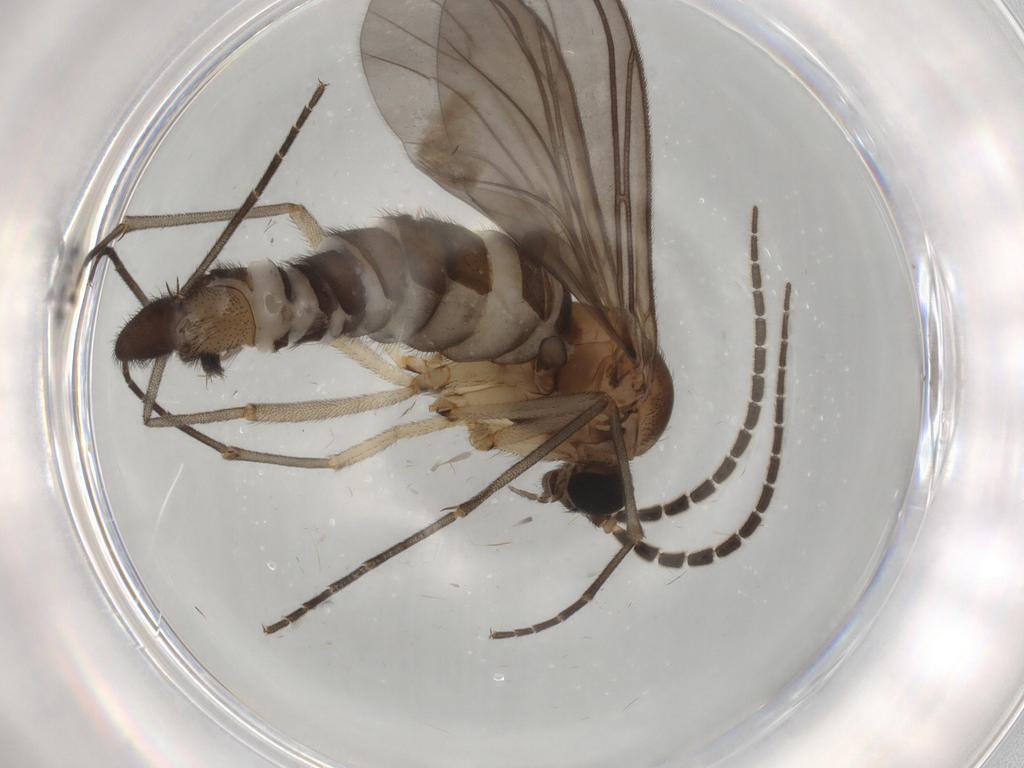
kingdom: Animalia
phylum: Arthropoda
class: Insecta
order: Diptera
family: Sciaridae
